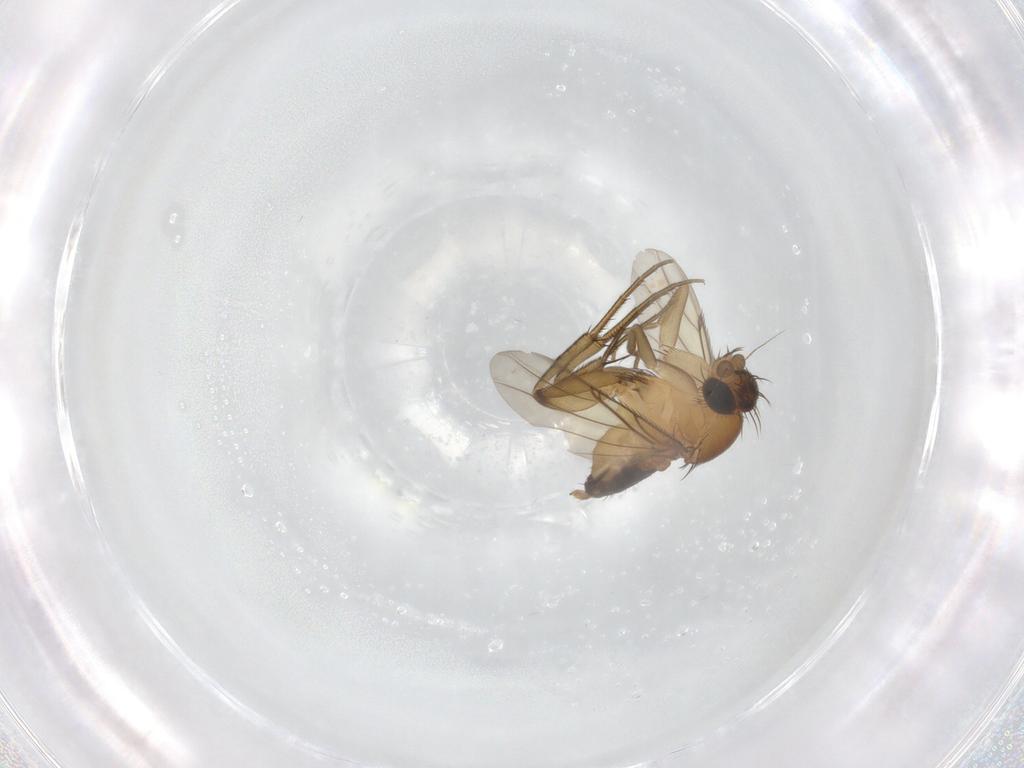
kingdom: Animalia
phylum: Arthropoda
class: Insecta
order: Diptera
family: Phoridae
